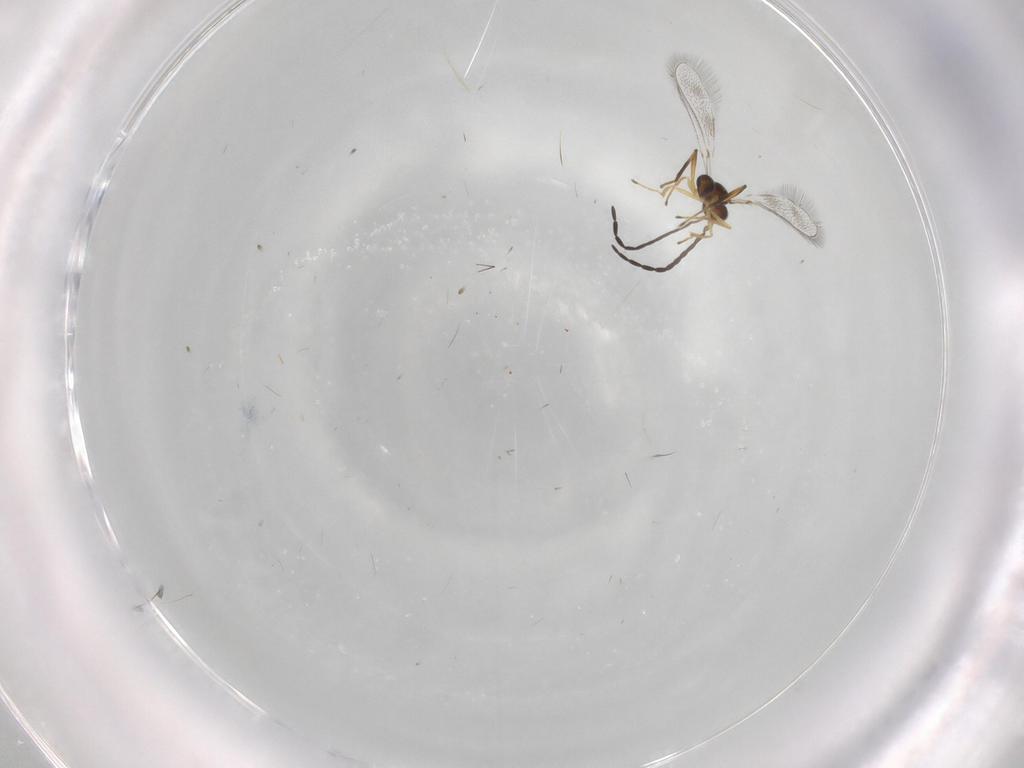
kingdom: Animalia
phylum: Arthropoda
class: Insecta
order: Hymenoptera
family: Mymaridae
